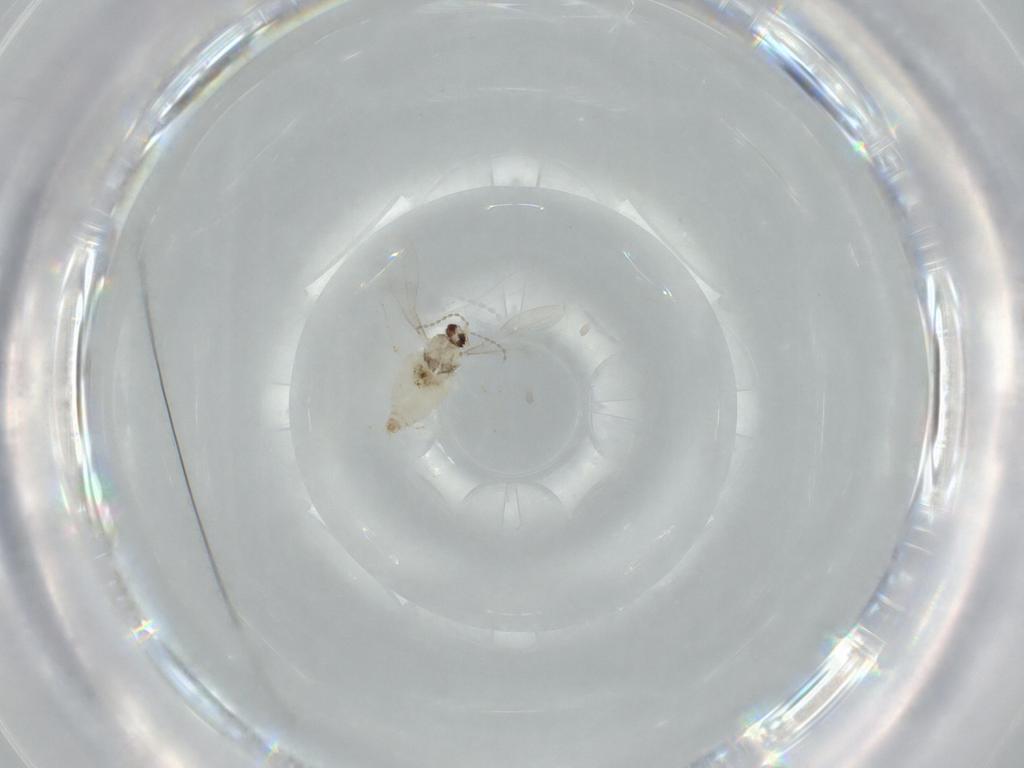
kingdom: Animalia
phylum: Arthropoda
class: Insecta
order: Diptera
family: Cecidomyiidae
